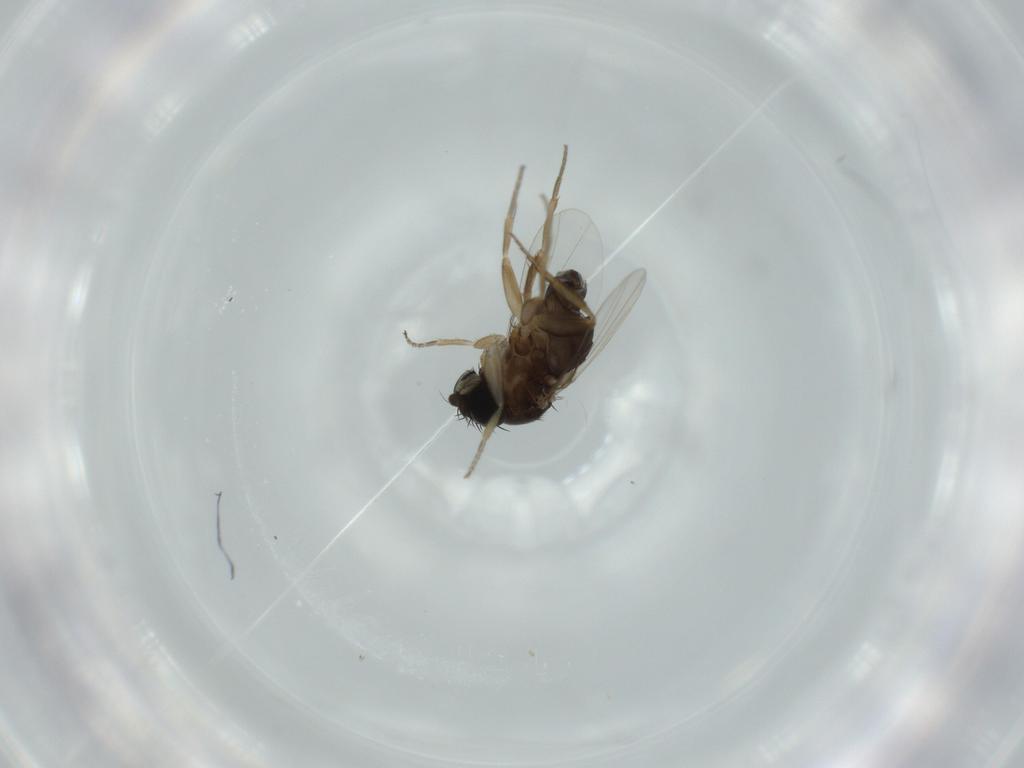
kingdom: Animalia
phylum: Arthropoda
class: Insecta
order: Diptera
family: Phoridae
